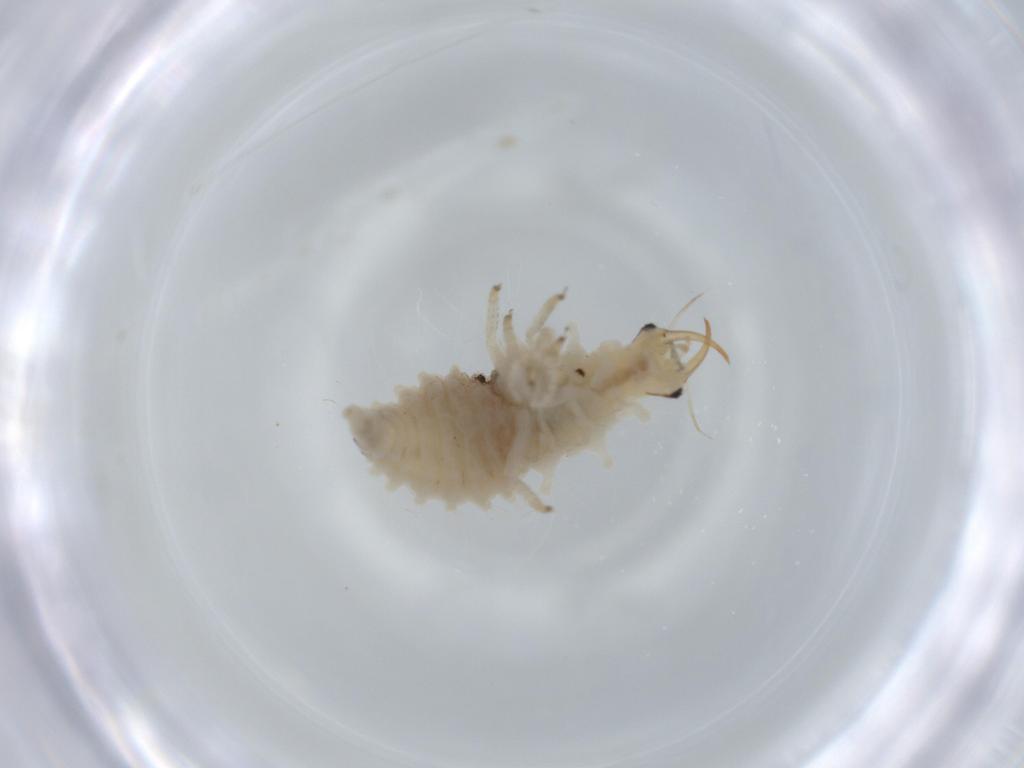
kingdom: Animalia
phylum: Arthropoda
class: Insecta
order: Neuroptera
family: Chrysopidae
